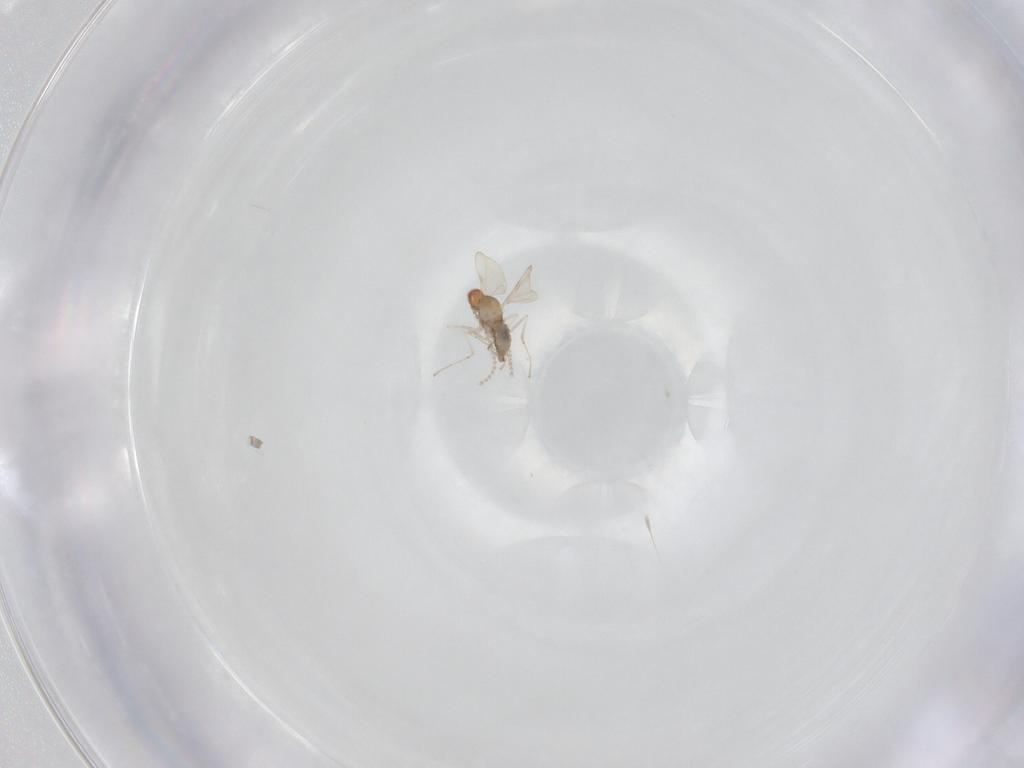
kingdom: Animalia
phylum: Arthropoda
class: Insecta
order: Diptera
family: Cecidomyiidae
